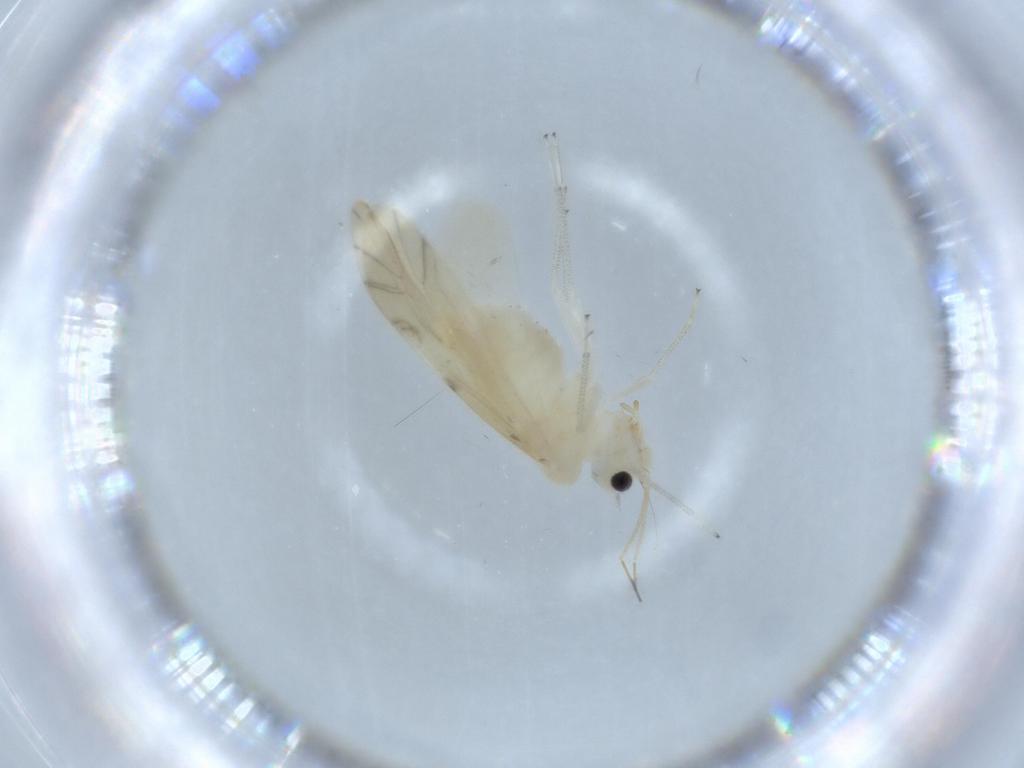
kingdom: Animalia
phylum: Arthropoda
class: Insecta
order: Psocodea
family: Caeciliusidae
